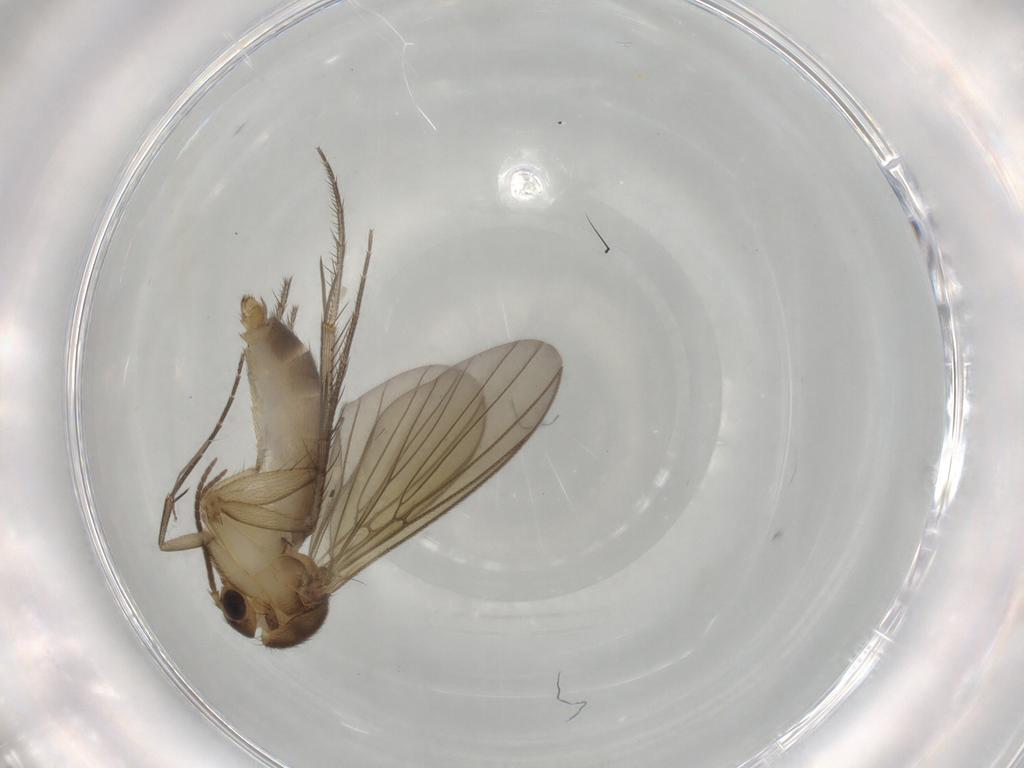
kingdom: Animalia
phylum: Arthropoda
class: Insecta
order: Diptera
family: Mycetophilidae
